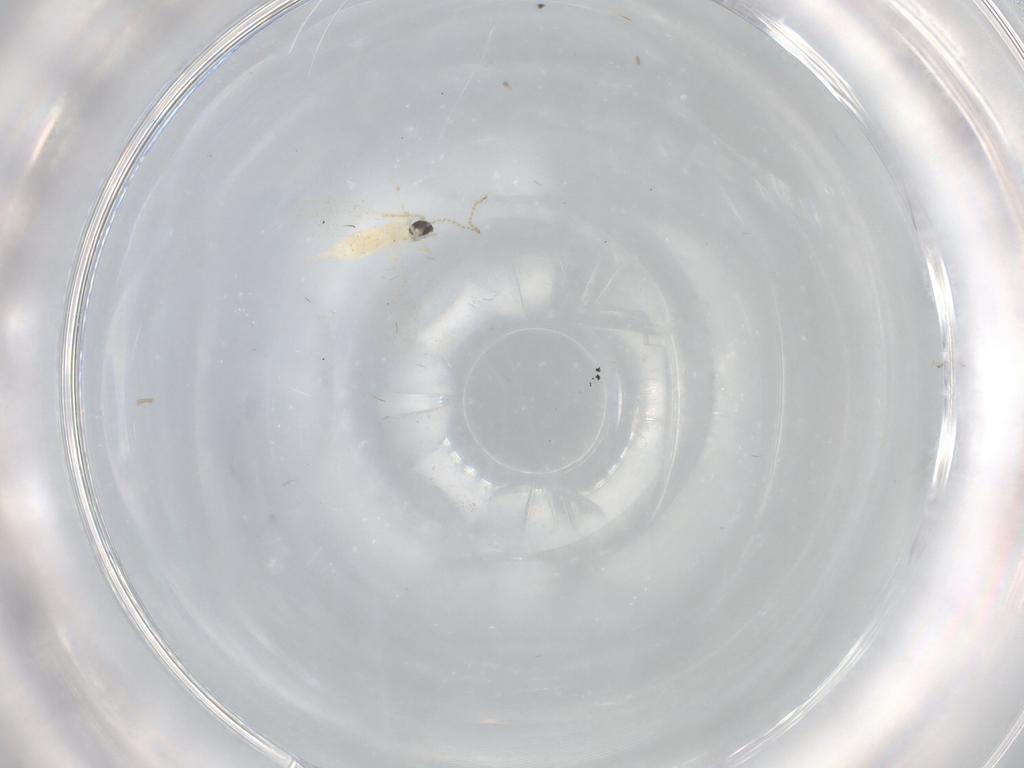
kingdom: Animalia
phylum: Arthropoda
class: Insecta
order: Diptera
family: Cecidomyiidae
